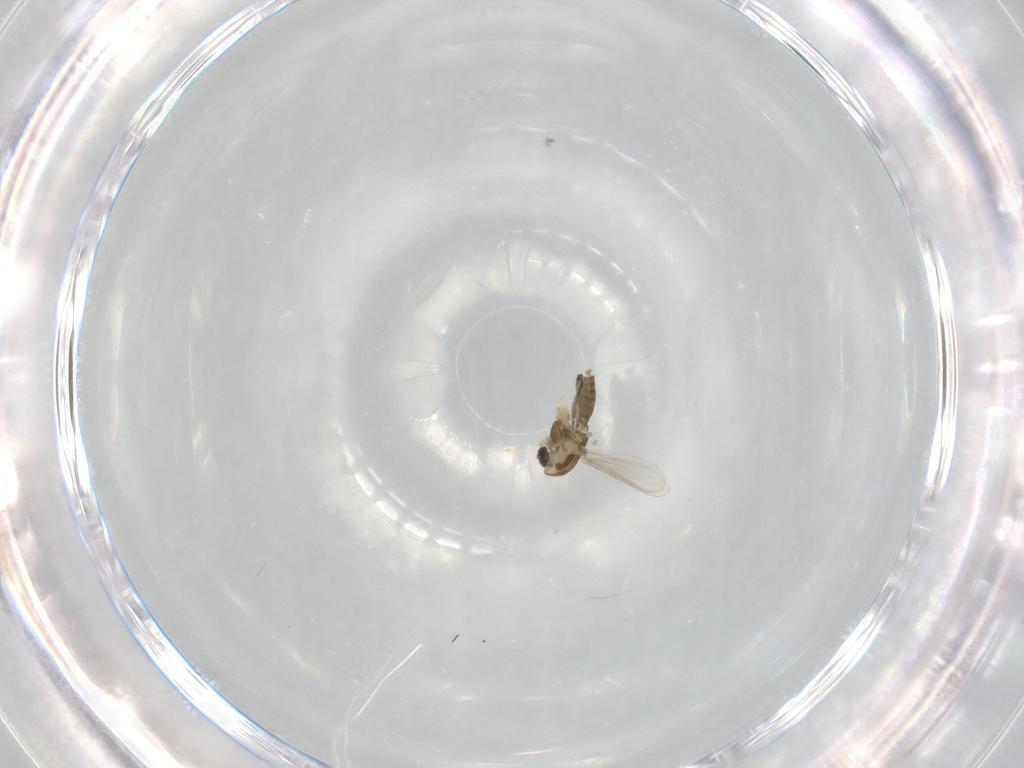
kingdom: Animalia
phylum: Arthropoda
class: Insecta
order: Diptera
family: Chironomidae
